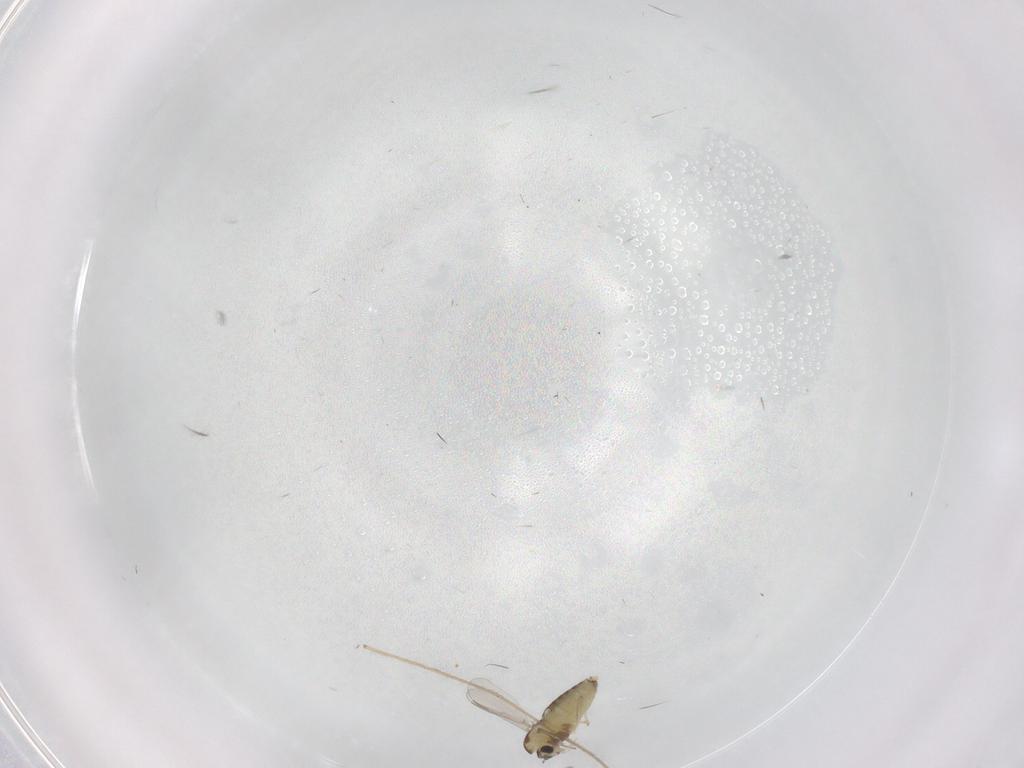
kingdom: Animalia
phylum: Arthropoda
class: Insecta
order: Diptera
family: Chironomidae
